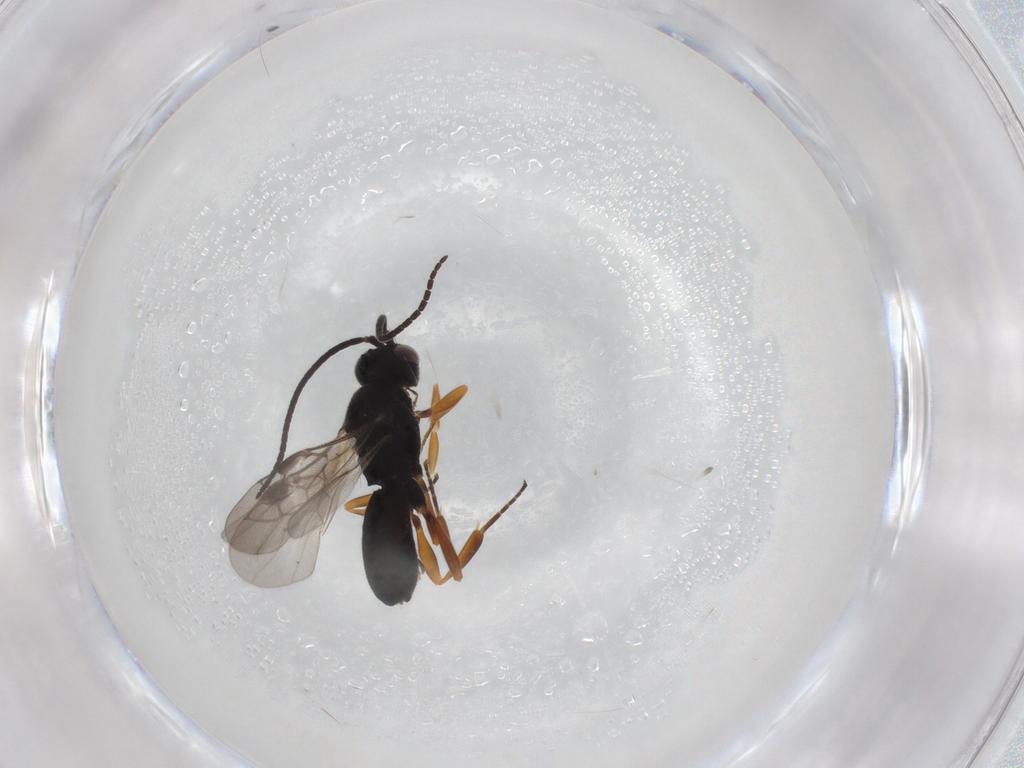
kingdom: Animalia
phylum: Arthropoda
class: Insecta
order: Hymenoptera
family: Braconidae
